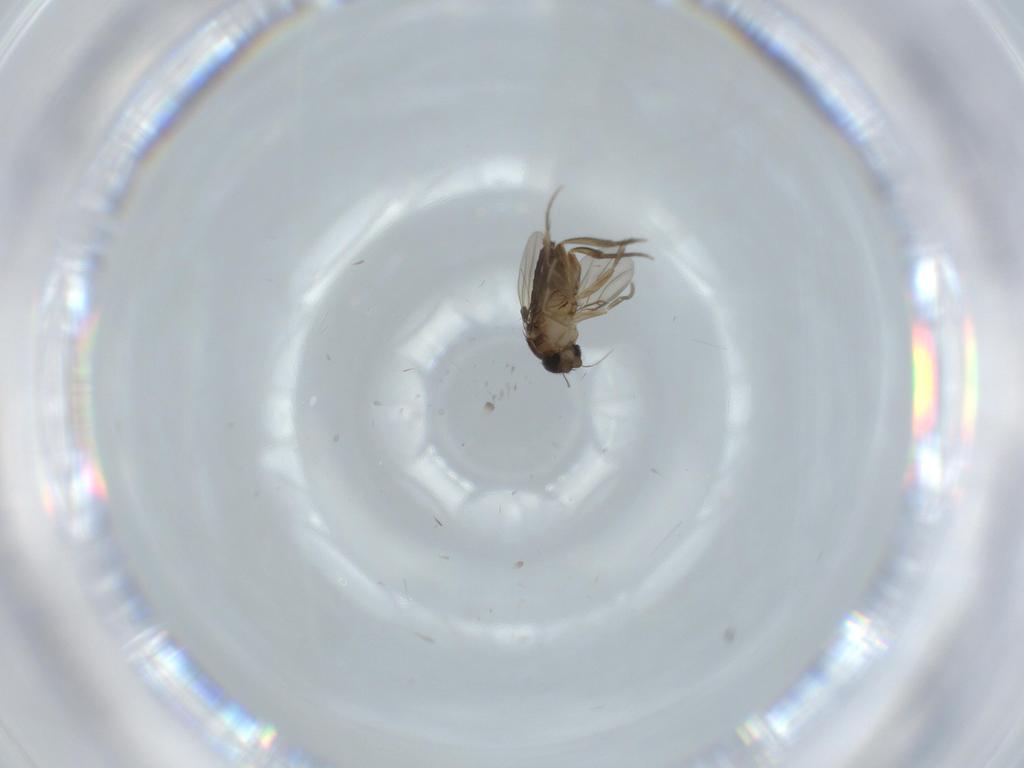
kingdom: Animalia
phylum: Arthropoda
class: Insecta
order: Diptera
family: Phoridae
